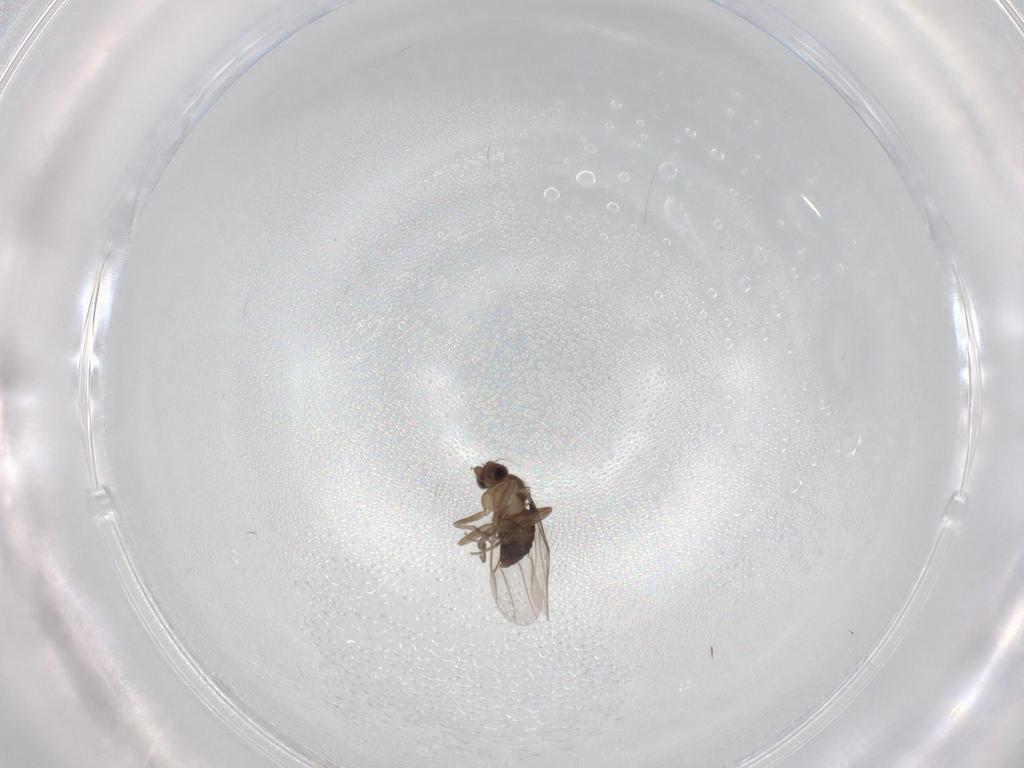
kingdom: Animalia
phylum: Arthropoda
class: Insecta
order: Diptera
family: Phoridae
